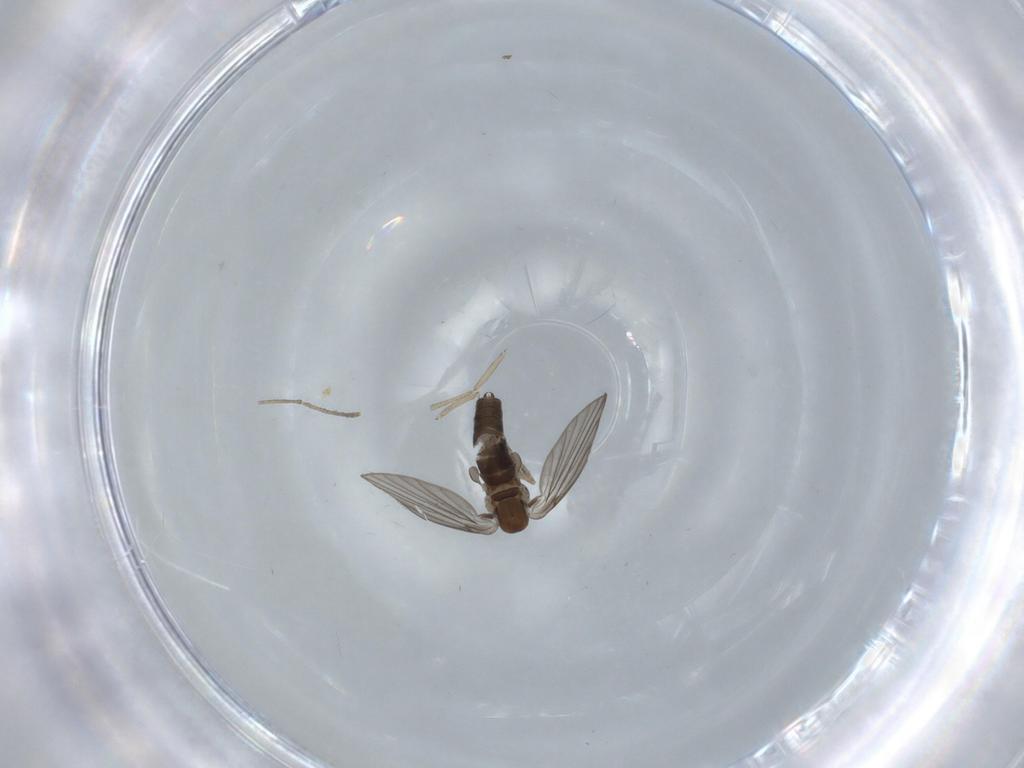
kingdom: Animalia
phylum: Arthropoda
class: Insecta
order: Diptera
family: Psychodidae
